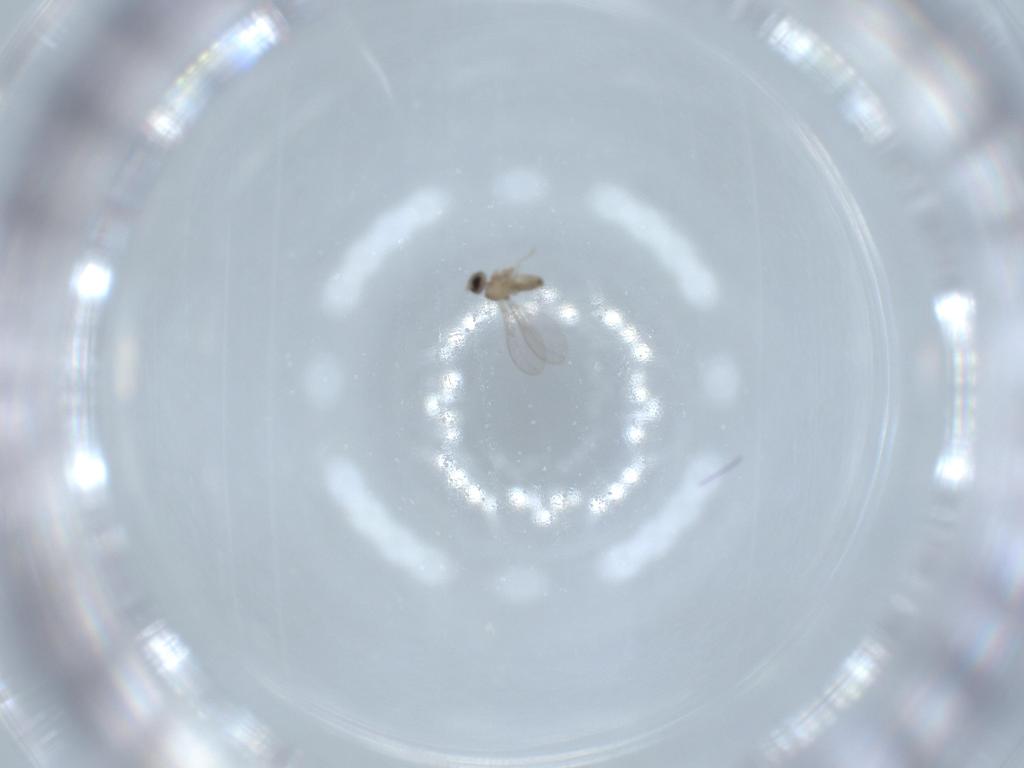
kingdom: Animalia
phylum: Arthropoda
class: Insecta
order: Diptera
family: Cecidomyiidae
